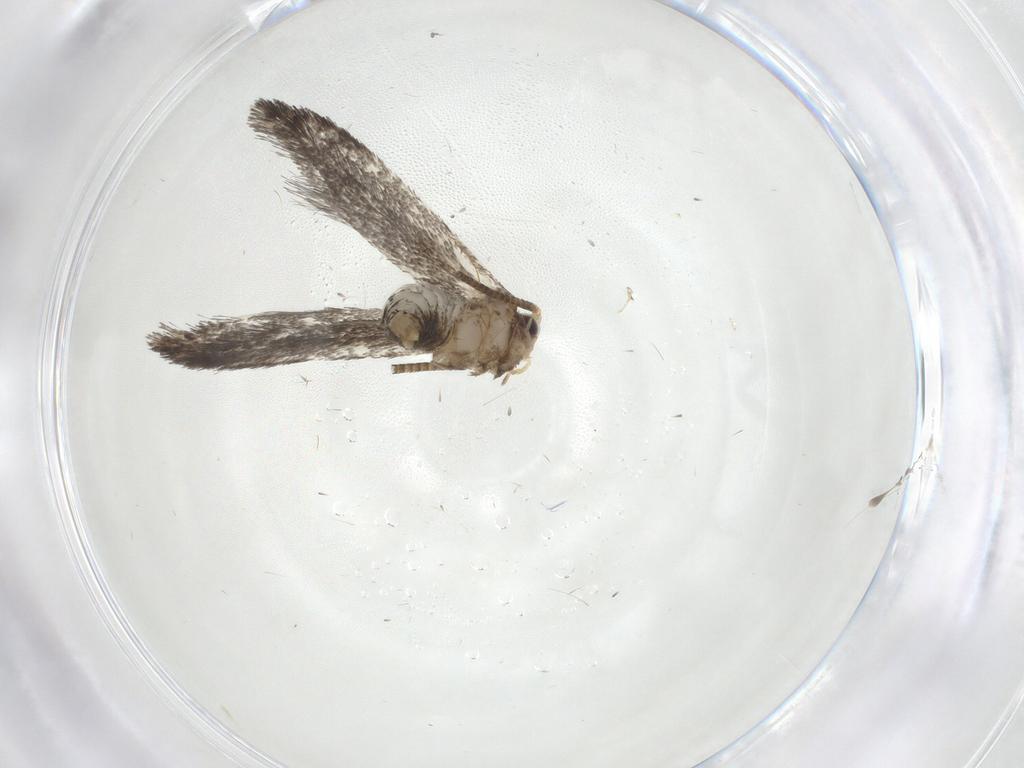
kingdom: Animalia
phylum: Arthropoda
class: Insecta
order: Lepidoptera
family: Tineidae
